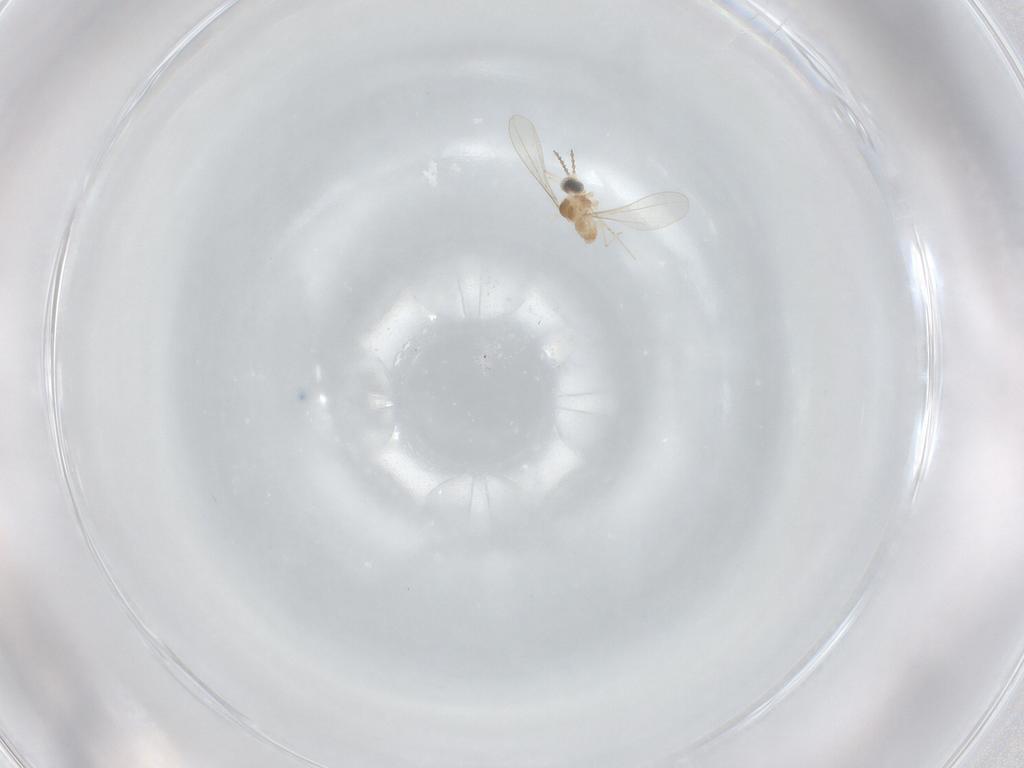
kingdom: Animalia
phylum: Arthropoda
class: Insecta
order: Diptera
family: Cecidomyiidae
